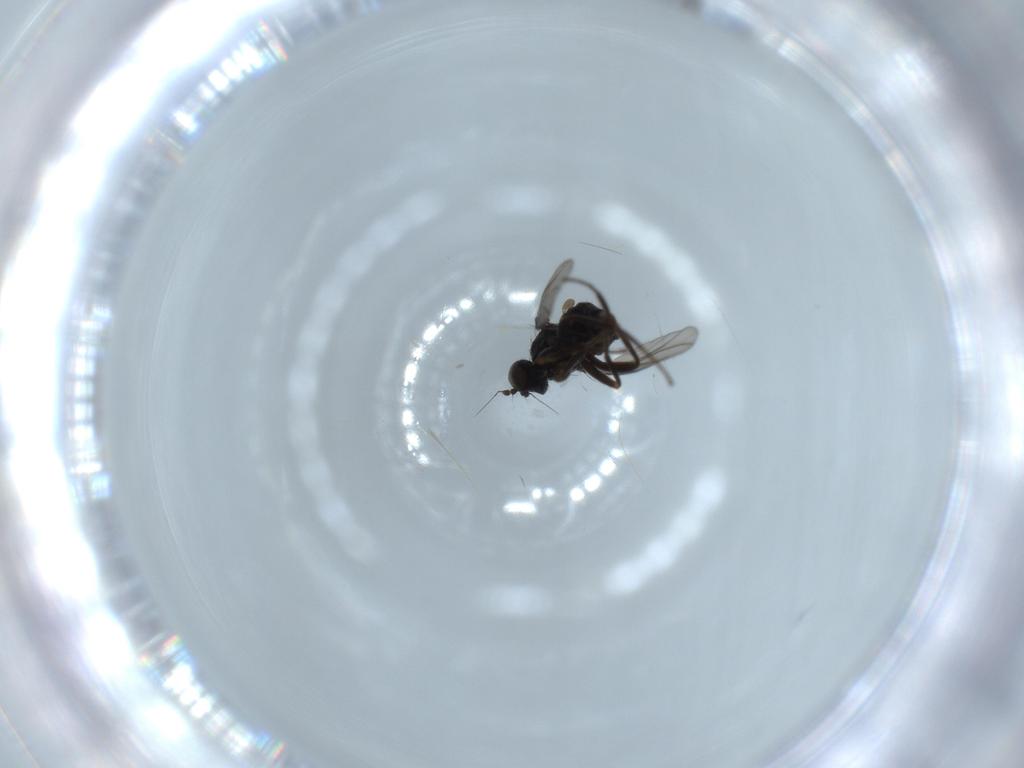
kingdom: Animalia
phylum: Arthropoda
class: Insecta
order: Diptera
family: Hybotidae
